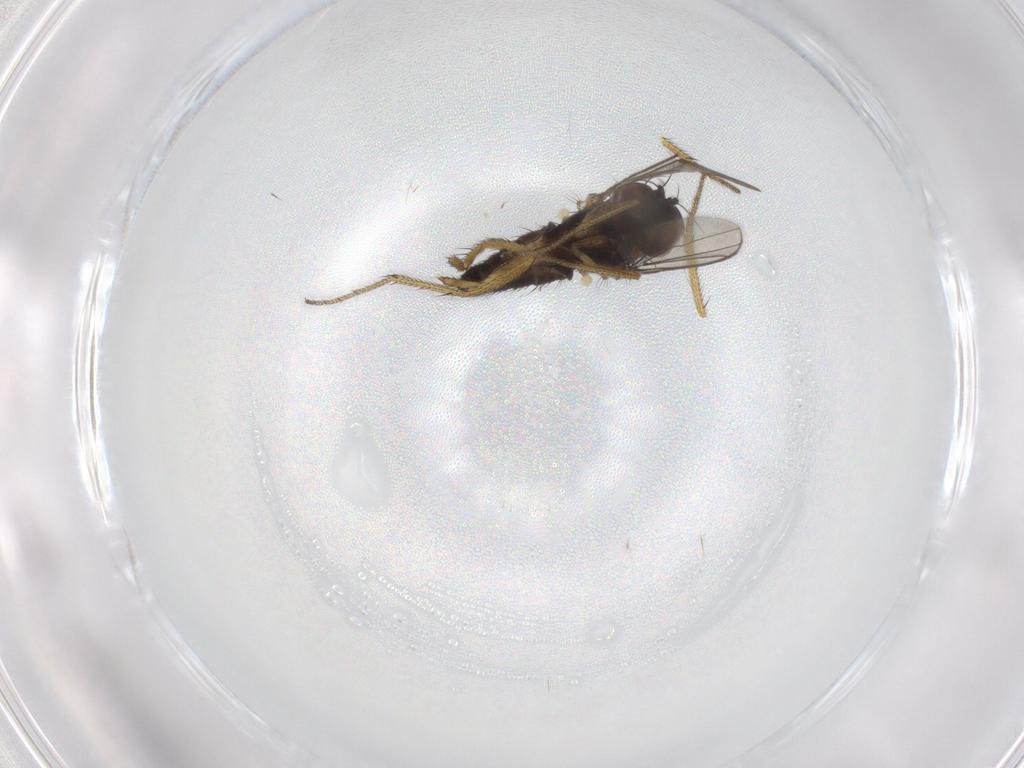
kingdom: Animalia
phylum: Arthropoda
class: Insecta
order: Diptera
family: Dolichopodidae
